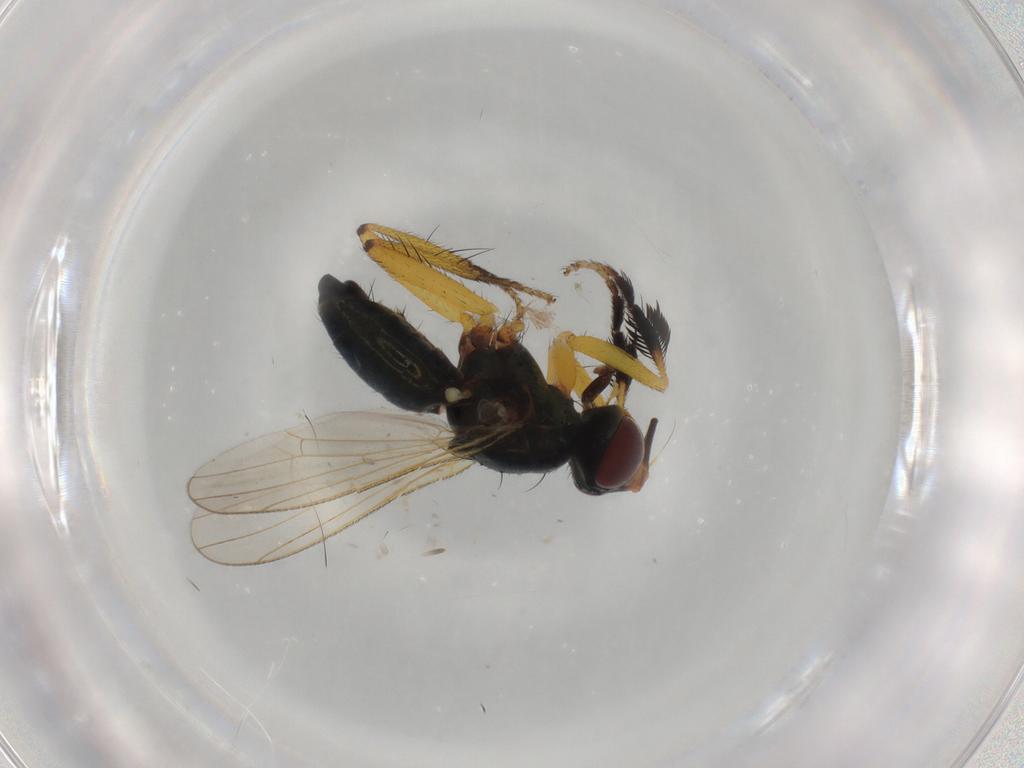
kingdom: Animalia
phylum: Arthropoda
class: Insecta
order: Diptera
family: Muscidae
